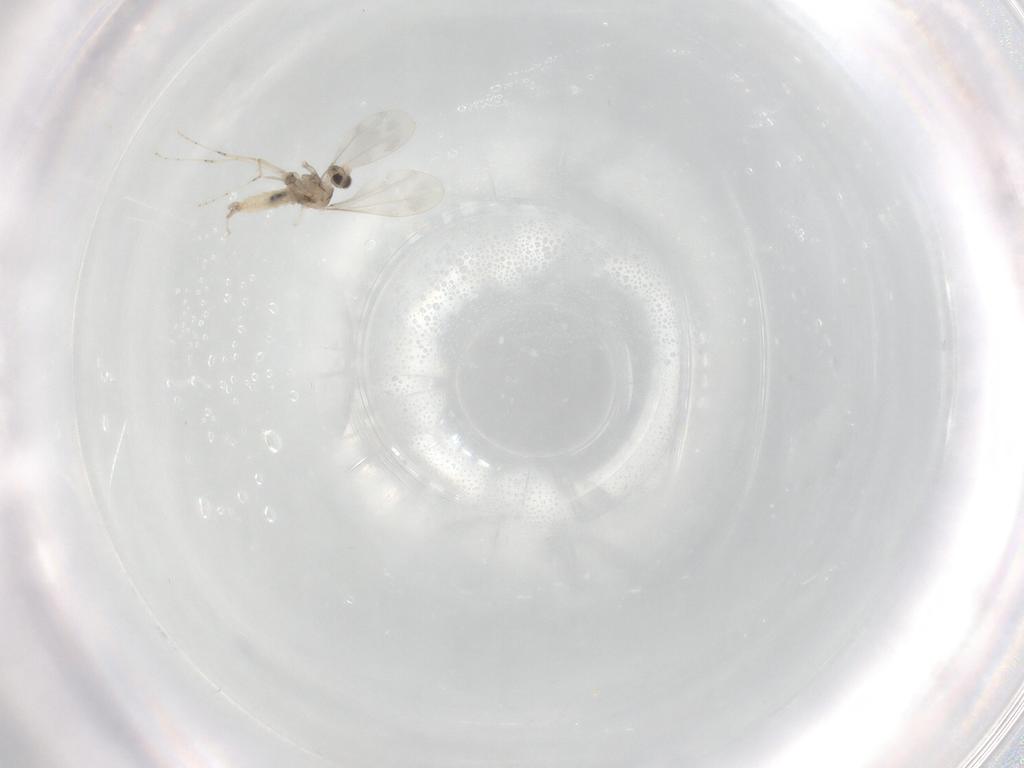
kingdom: Animalia
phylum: Arthropoda
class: Insecta
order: Diptera
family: Cecidomyiidae
